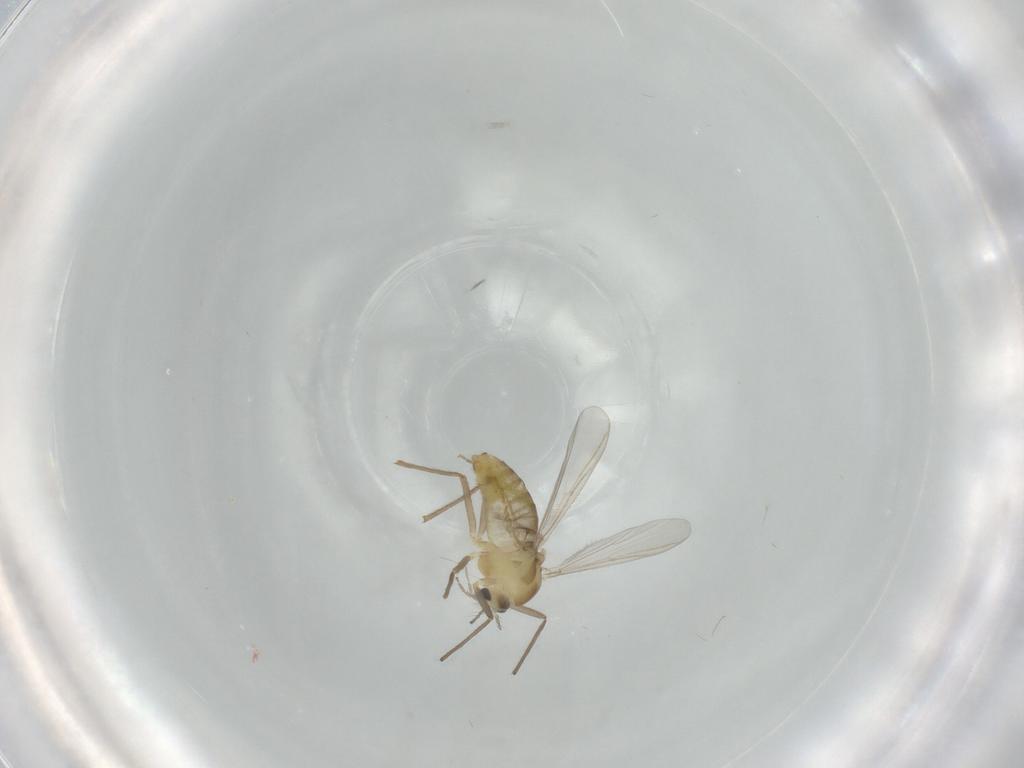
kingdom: Animalia
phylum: Arthropoda
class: Insecta
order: Diptera
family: Chironomidae
